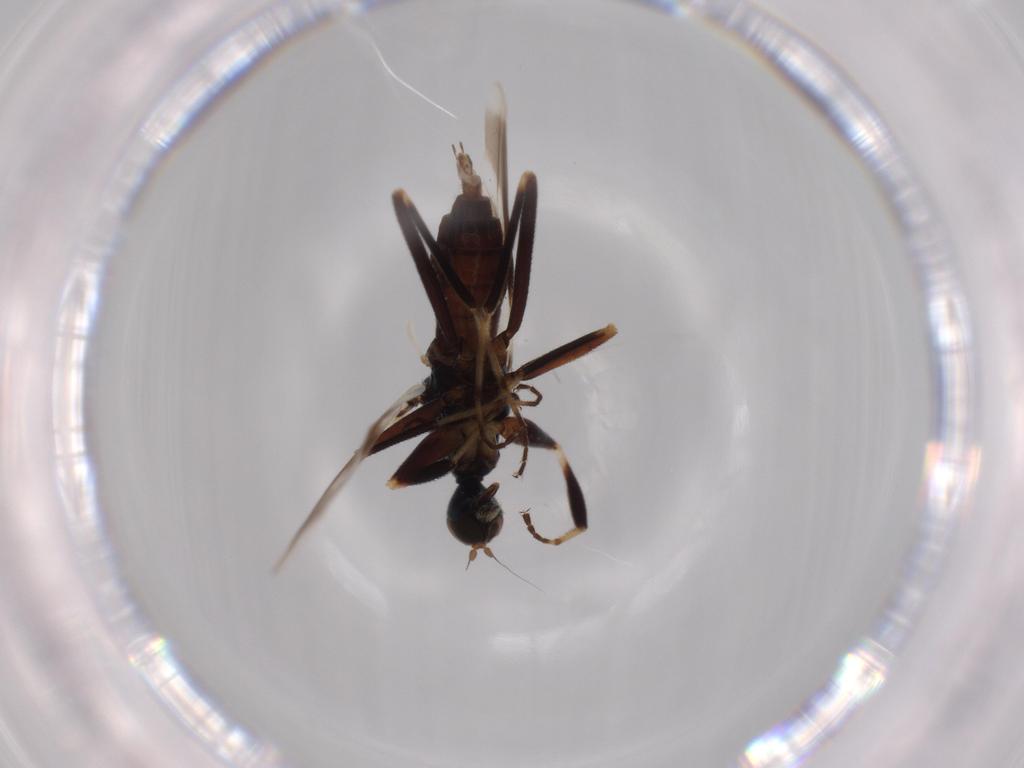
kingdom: Animalia
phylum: Arthropoda
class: Insecta
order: Diptera
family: Hybotidae
